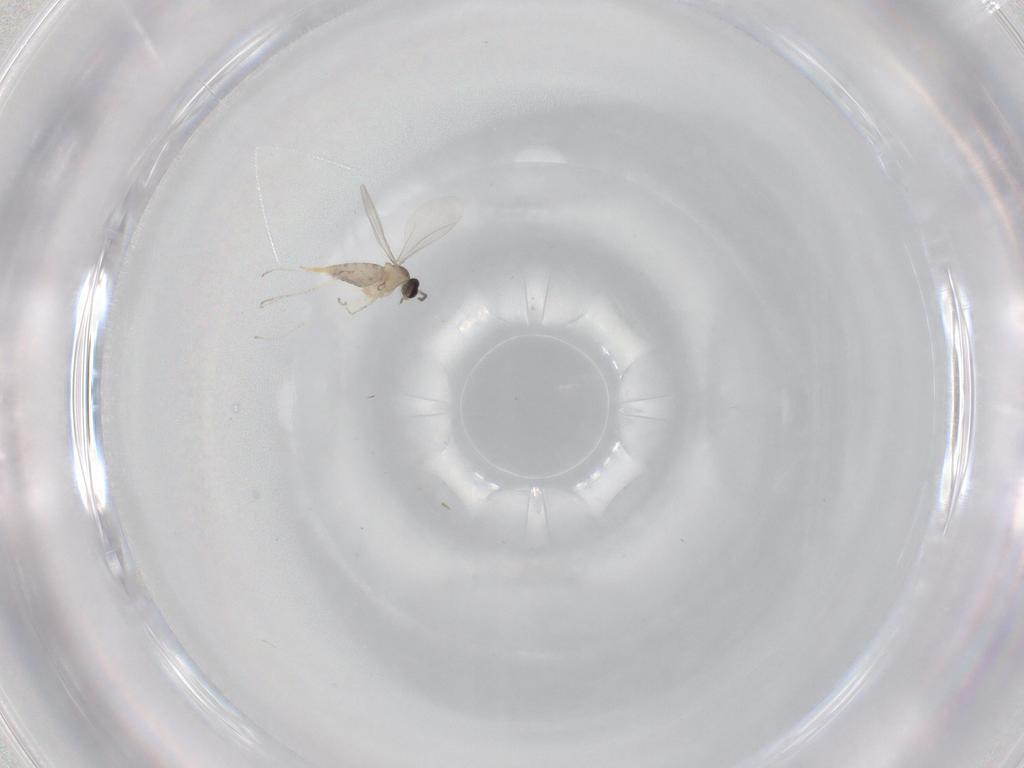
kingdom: Animalia
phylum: Arthropoda
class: Insecta
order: Diptera
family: Cecidomyiidae
